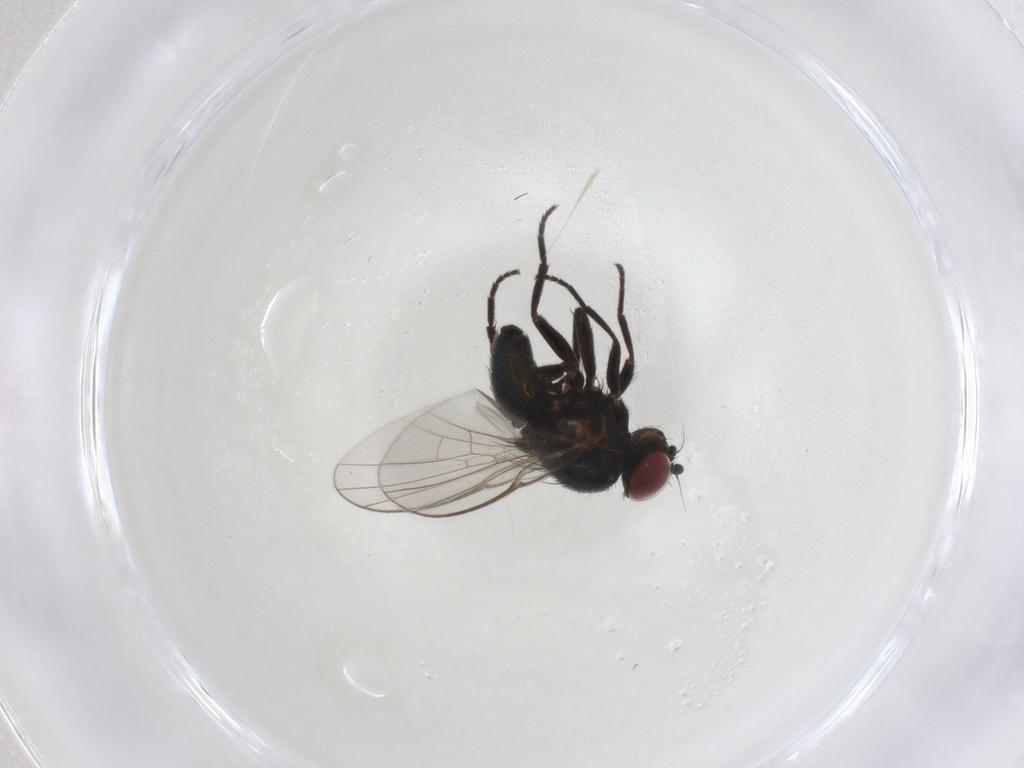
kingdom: Animalia
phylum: Arthropoda
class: Insecta
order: Diptera
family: Agromyzidae
